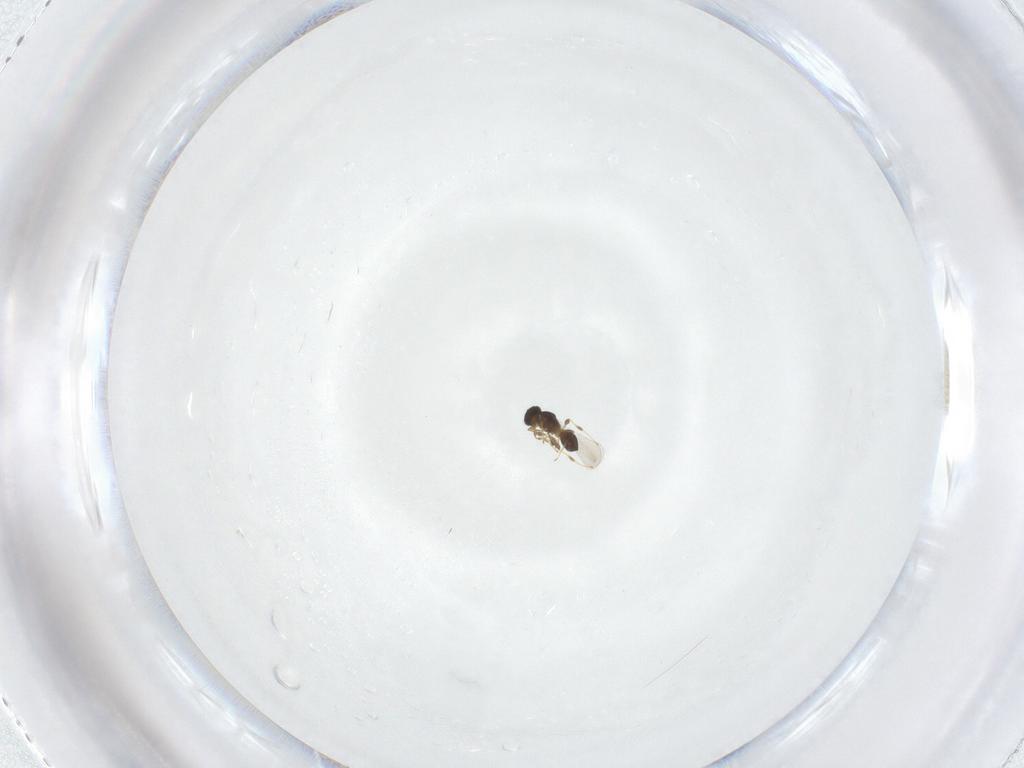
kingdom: Animalia
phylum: Arthropoda
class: Insecta
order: Hymenoptera
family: Platygastridae
